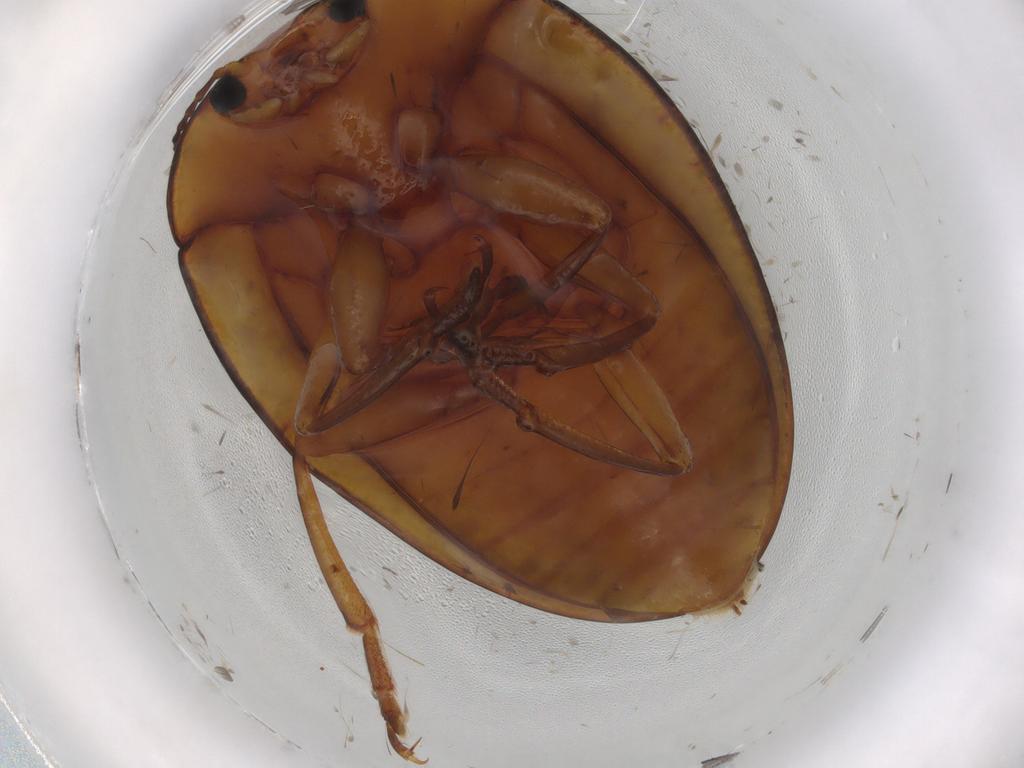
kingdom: Animalia
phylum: Arthropoda
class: Insecta
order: Coleoptera
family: Erotylidae
